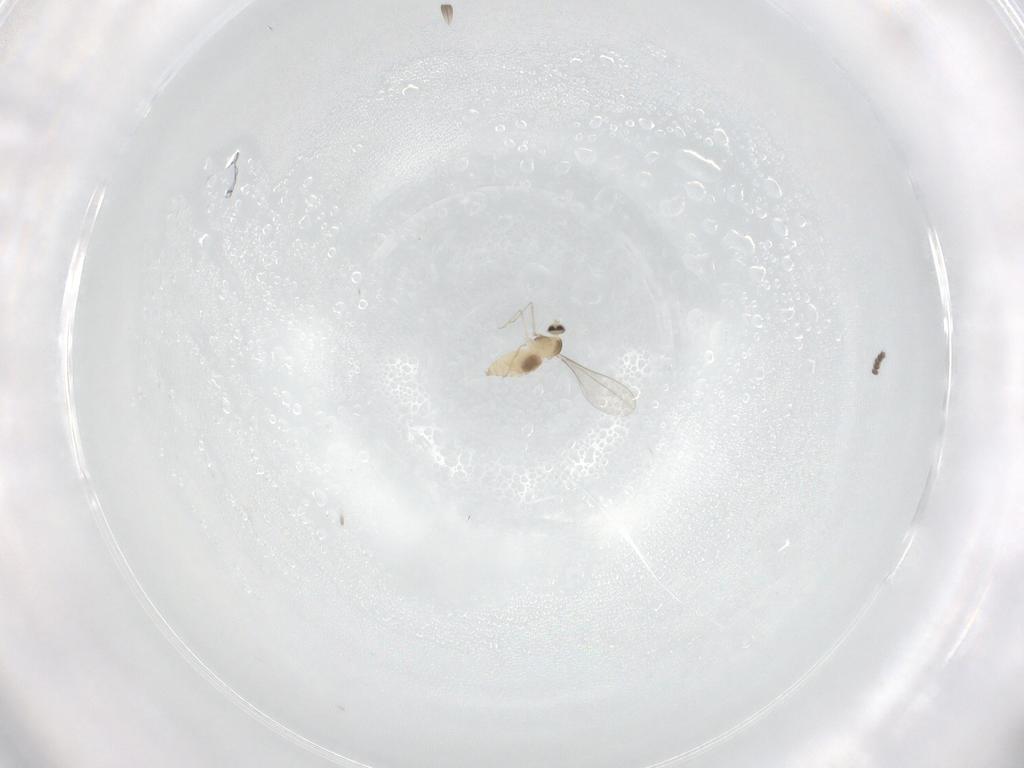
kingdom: Animalia
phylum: Arthropoda
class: Insecta
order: Diptera
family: Cecidomyiidae
